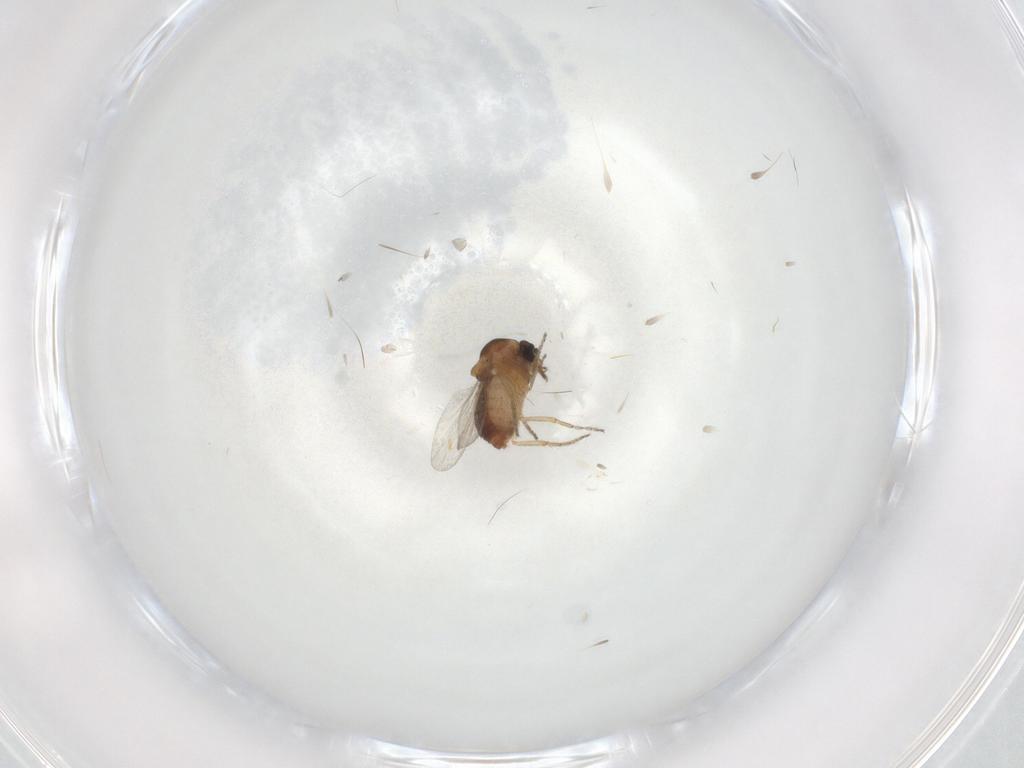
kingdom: Animalia
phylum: Arthropoda
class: Insecta
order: Diptera
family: Ceratopogonidae
